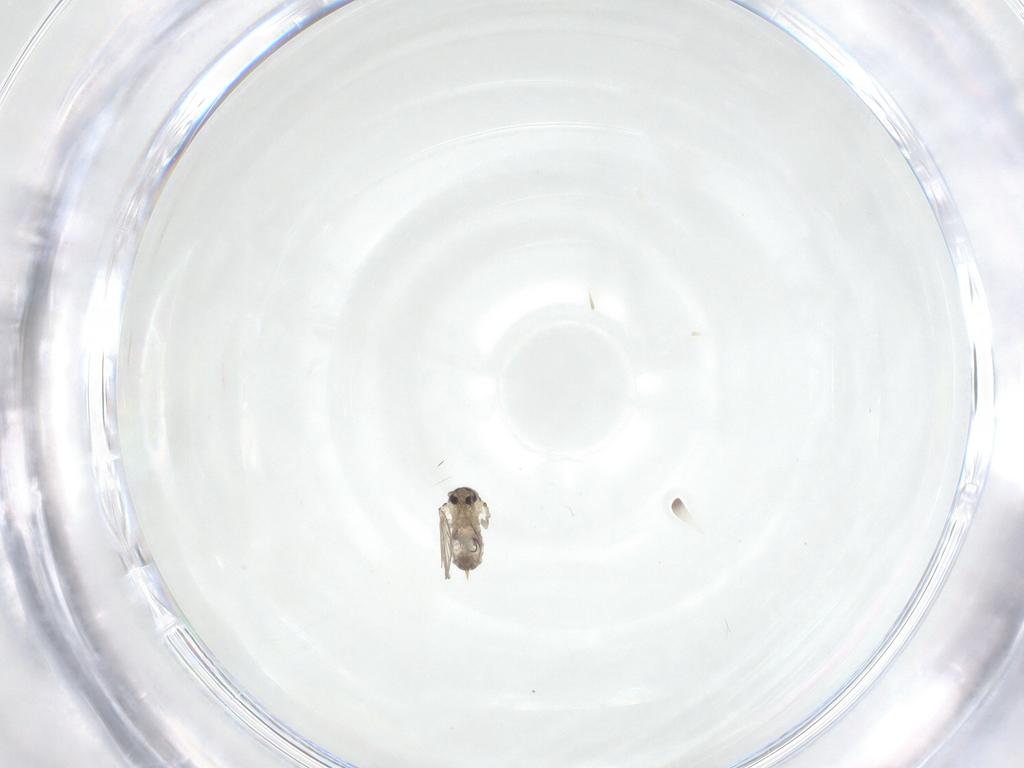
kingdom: Animalia
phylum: Arthropoda
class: Insecta
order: Diptera
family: Psychodidae
